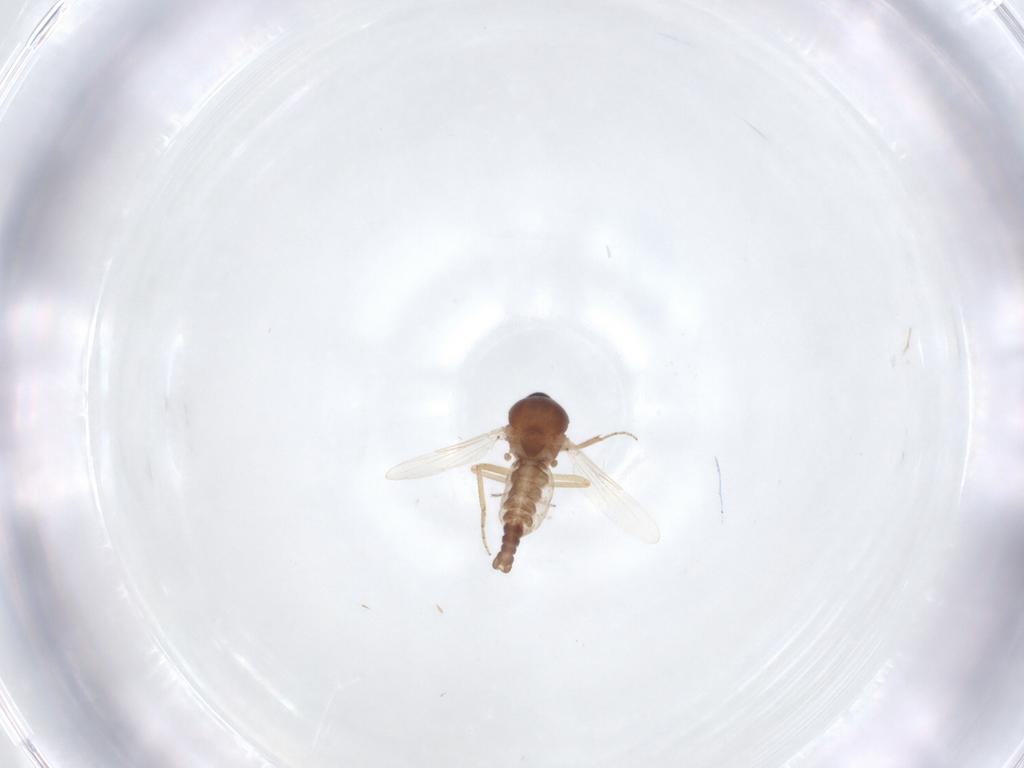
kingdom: Animalia
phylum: Arthropoda
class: Insecta
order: Diptera
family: Ceratopogonidae
